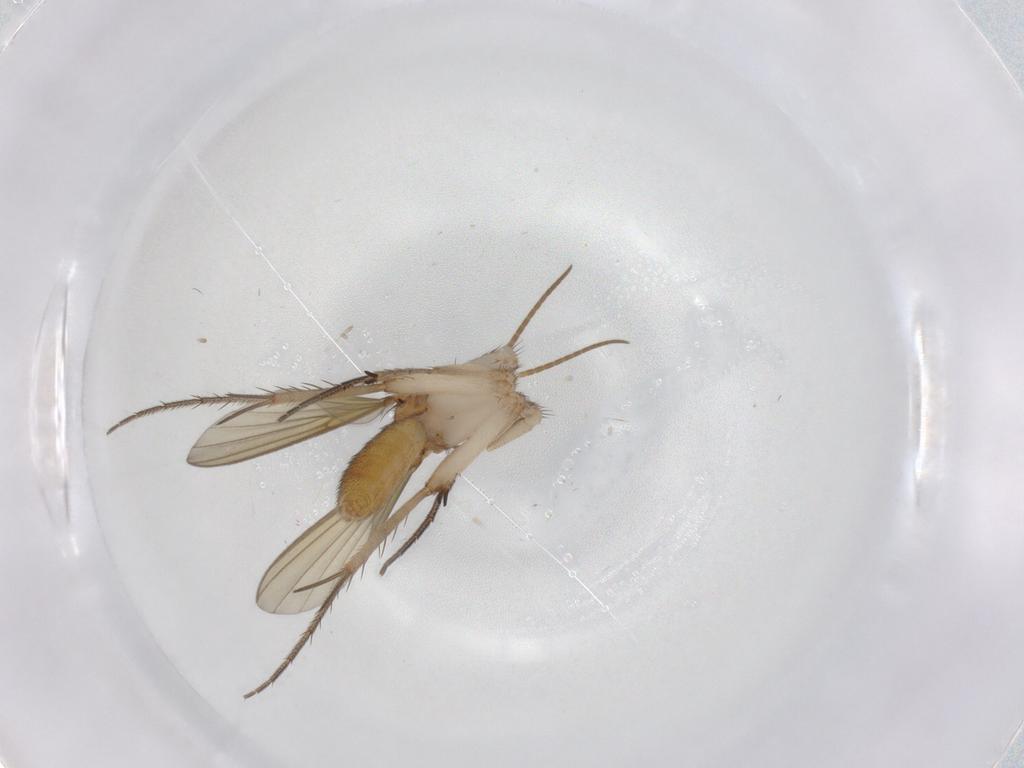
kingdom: Animalia
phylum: Arthropoda
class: Insecta
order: Diptera
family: Mycetophilidae
